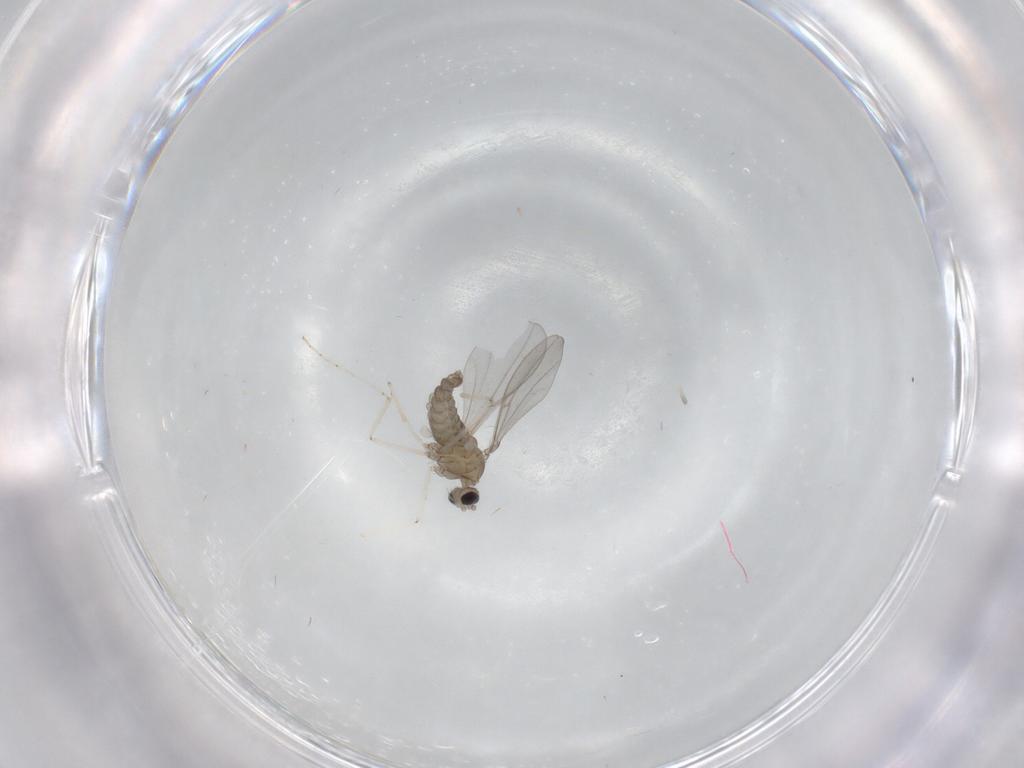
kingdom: Animalia
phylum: Arthropoda
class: Insecta
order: Diptera
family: Cecidomyiidae
